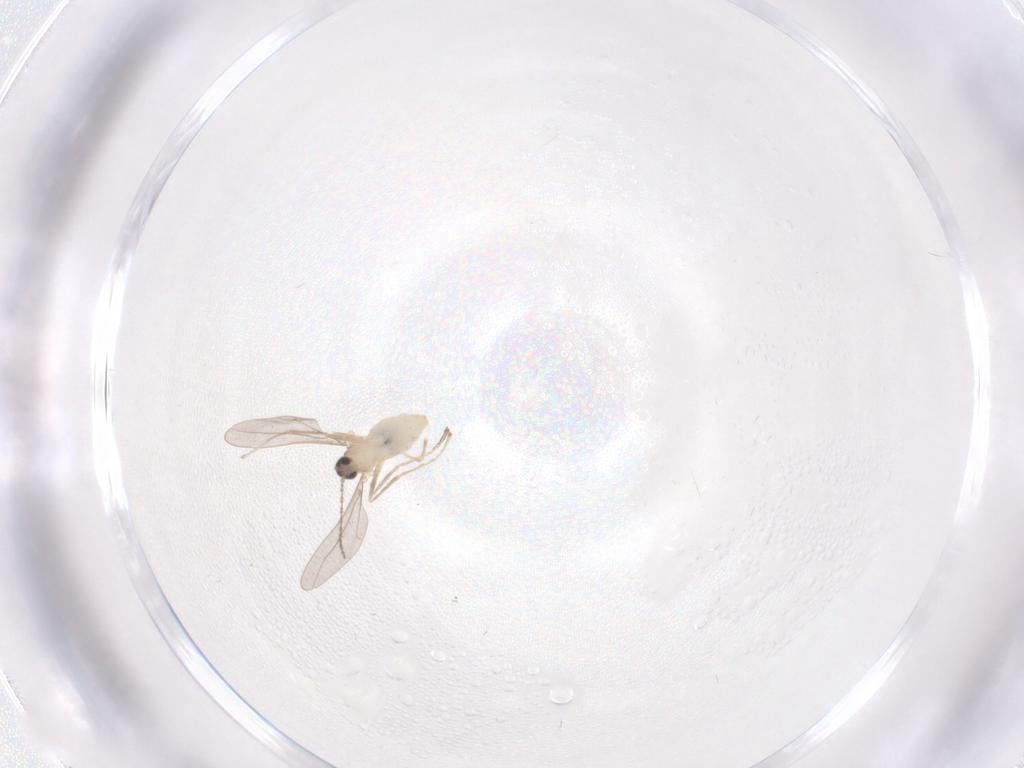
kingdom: Animalia
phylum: Arthropoda
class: Insecta
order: Diptera
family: Cecidomyiidae
